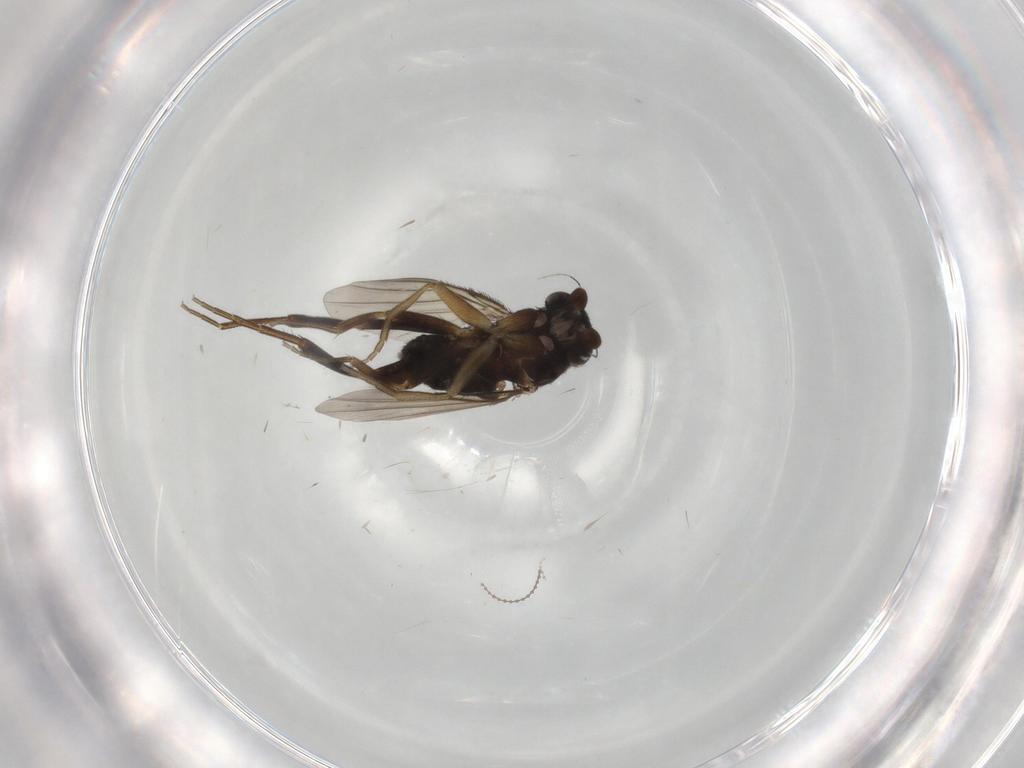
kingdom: Animalia
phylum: Arthropoda
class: Insecta
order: Diptera
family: Cecidomyiidae
